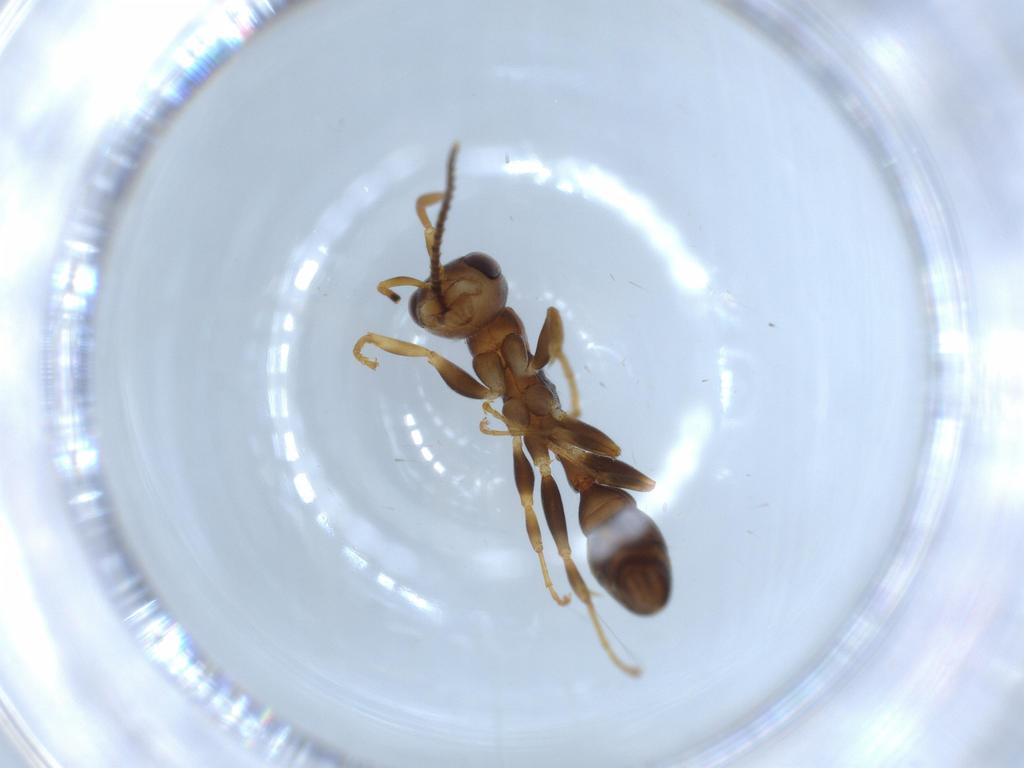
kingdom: Animalia
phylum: Arthropoda
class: Insecta
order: Hymenoptera
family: Formicidae
